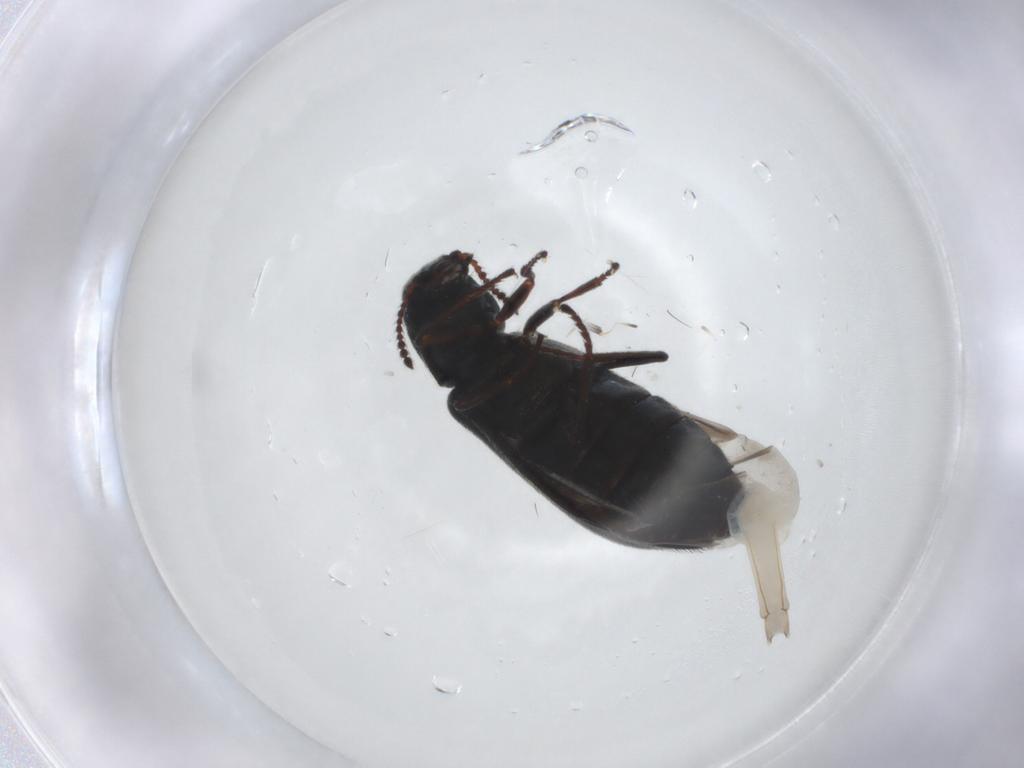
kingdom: Animalia
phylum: Arthropoda
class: Insecta
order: Coleoptera
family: Melyridae
